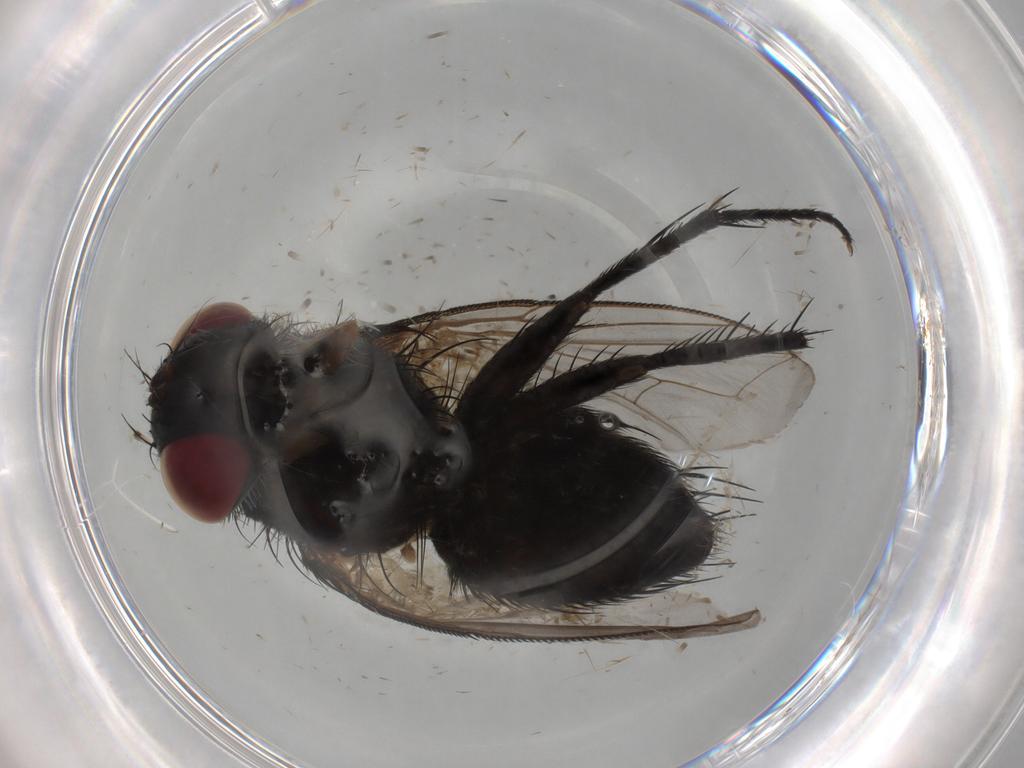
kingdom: Animalia
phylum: Arthropoda
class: Insecta
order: Diptera
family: Tachinidae
